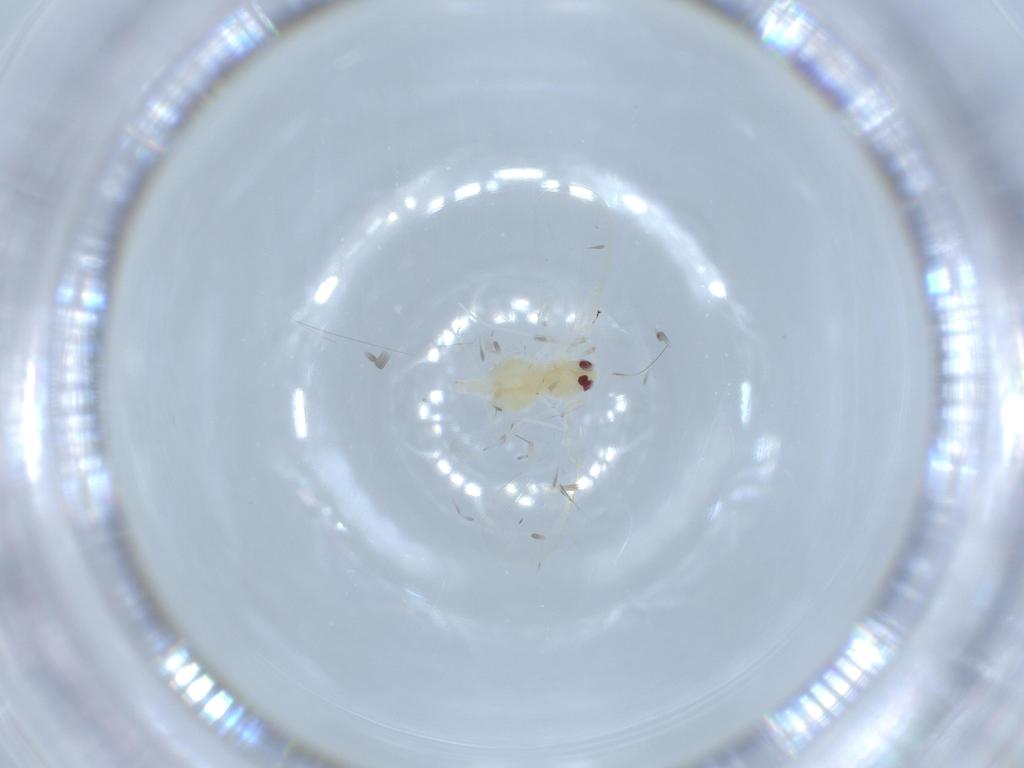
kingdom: Animalia
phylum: Arthropoda
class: Insecta
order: Hemiptera
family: Aleyrodidae
